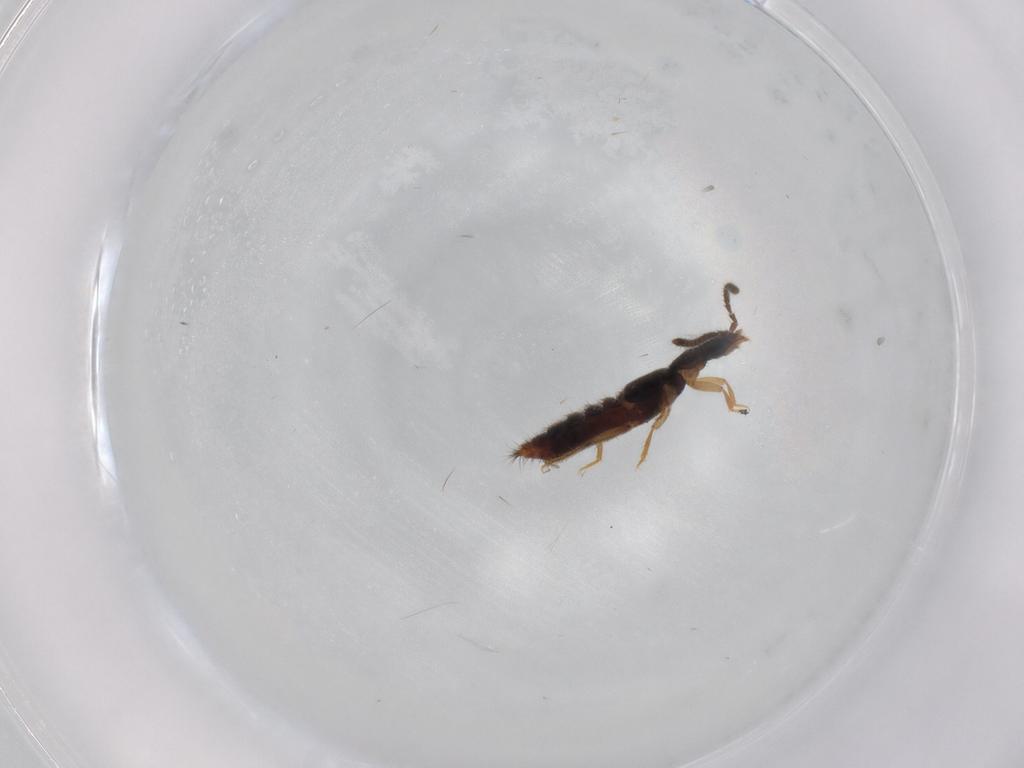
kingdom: Animalia
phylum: Arthropoda
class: Insecta
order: Coleoptera
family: Staphylinidae
